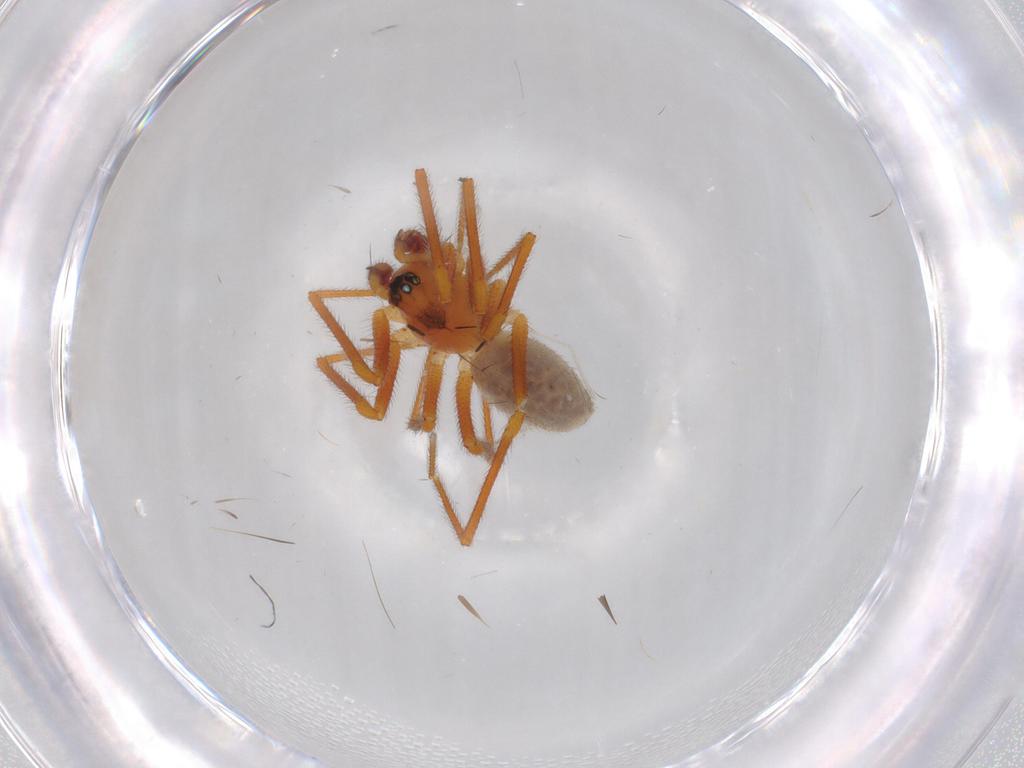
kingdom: Animalia
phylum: Arthropoda
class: Arachnida
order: Araneae
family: Linyphiidae
